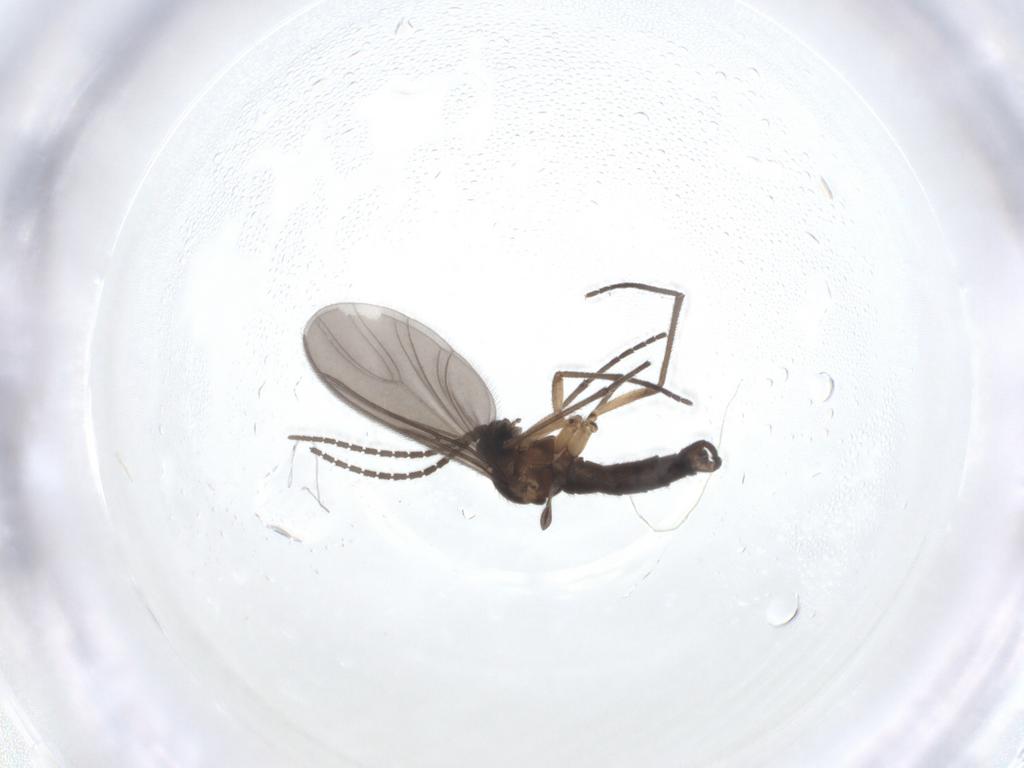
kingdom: Animalia
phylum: Arthropoda
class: Insecta
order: Diptera
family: Sciaridae
